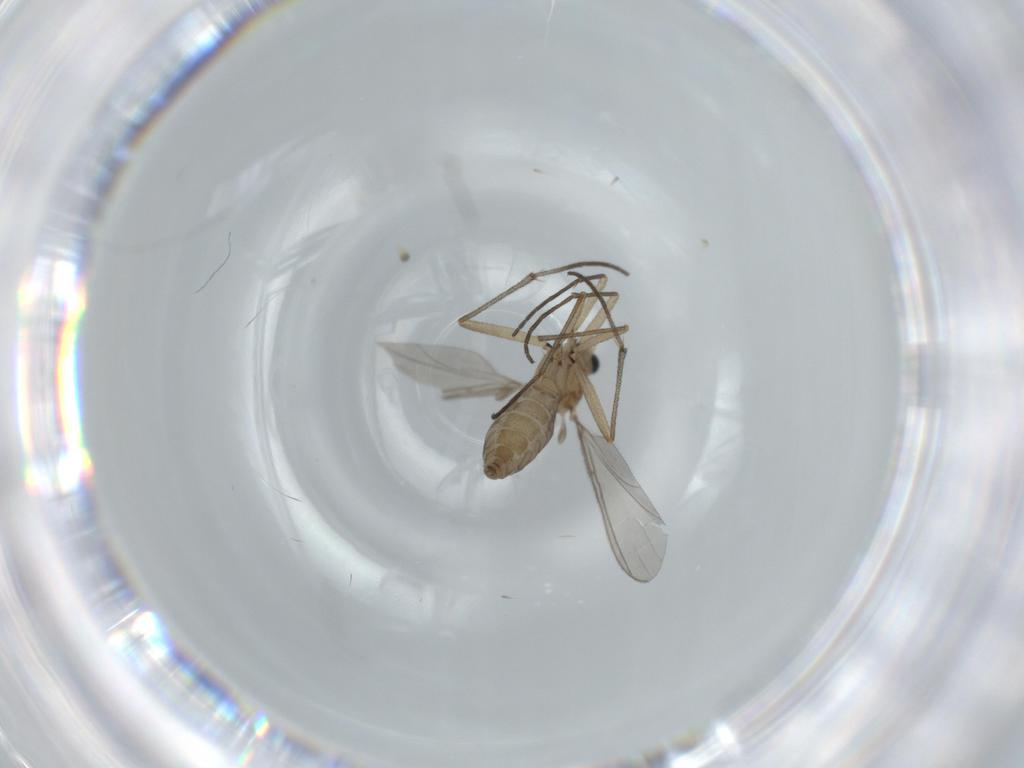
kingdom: Animalia
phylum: Arthropoda
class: Insecta
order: Diptera
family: Sciaridae
